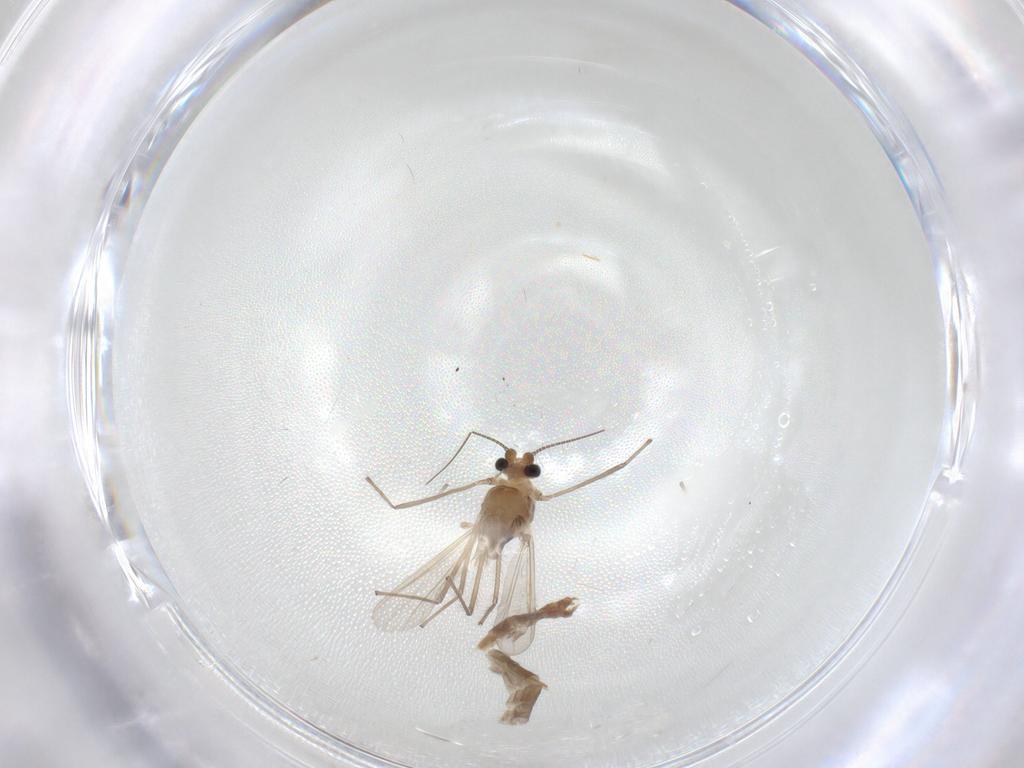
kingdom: Animalia
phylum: Arthropoda
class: Insecta
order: Diptera
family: Chironomidae
